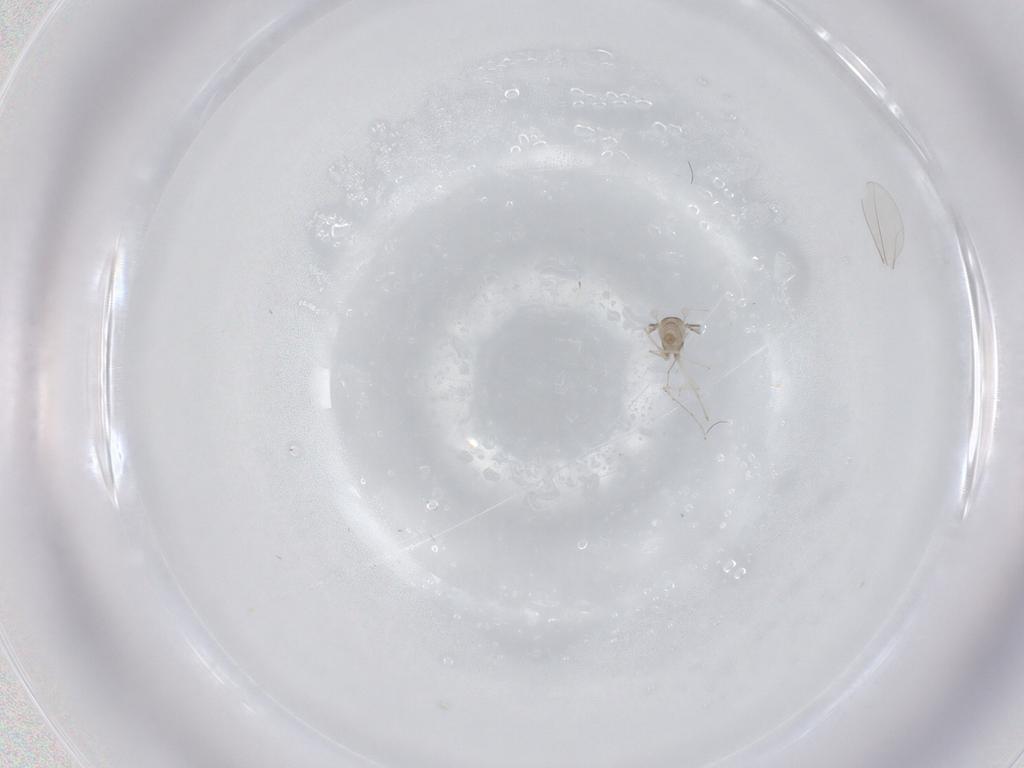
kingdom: Animalia
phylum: Arthropoda
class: Insecta
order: Diptera
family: Cecidomyiidae
